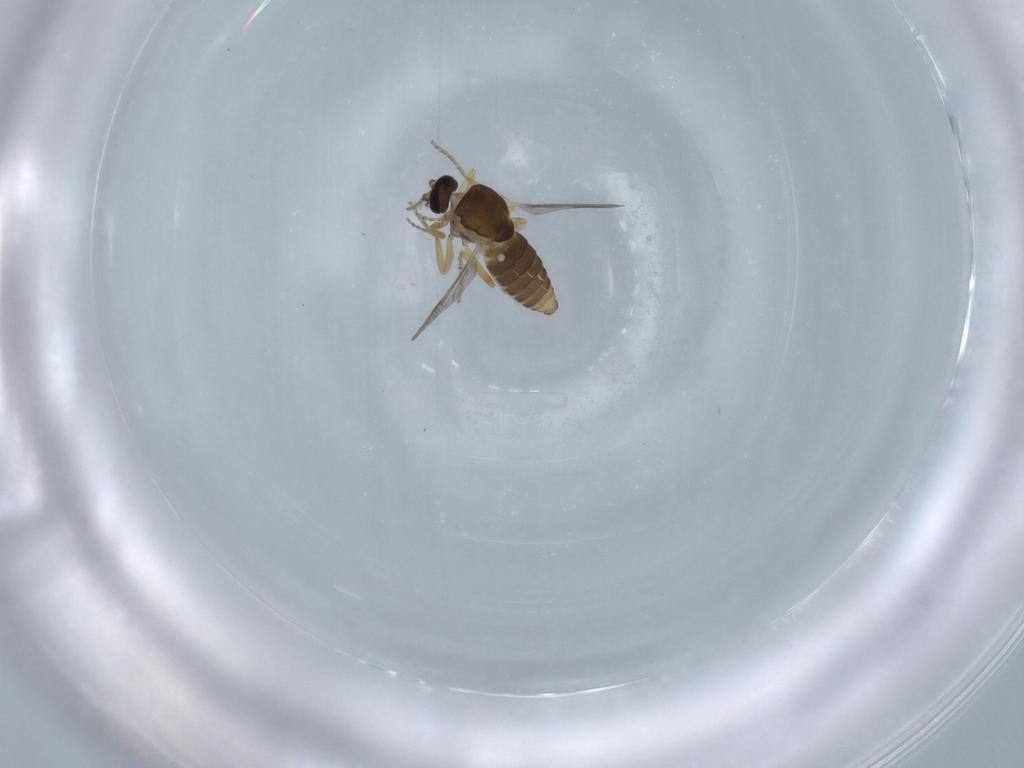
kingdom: Animalia
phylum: Arthropoda
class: Insecta
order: Diptera
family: Ceratopogonidae
